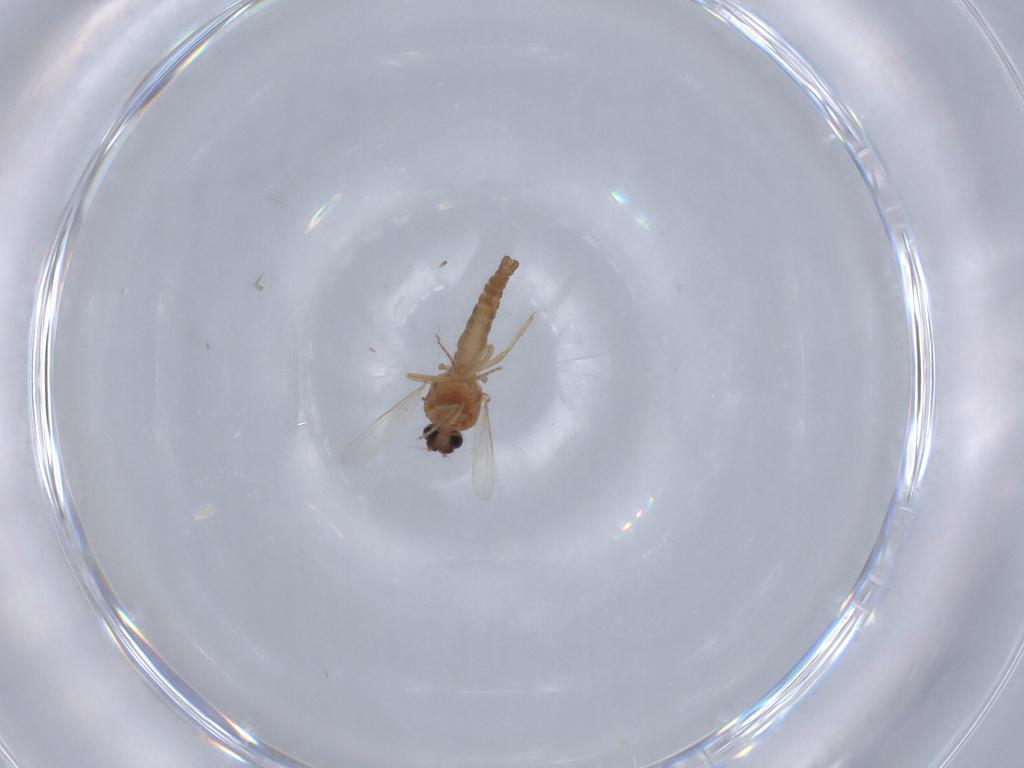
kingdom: Animalia
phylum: Arthropoda
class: Insecta
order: Diptera
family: Ceratopogonidae
